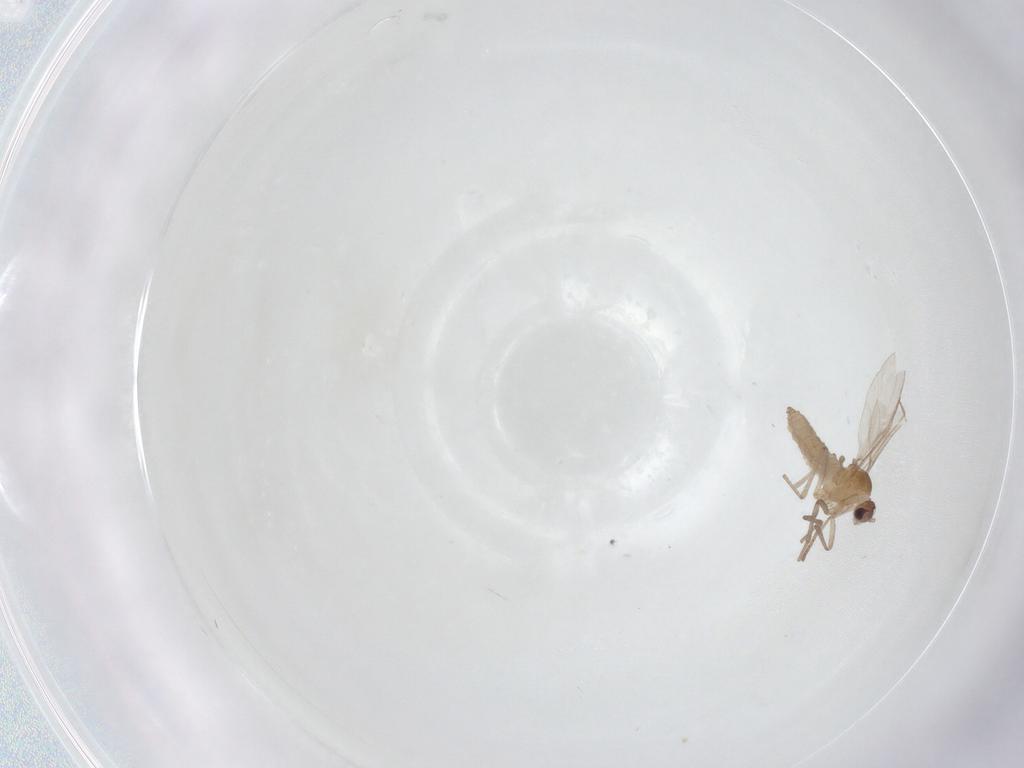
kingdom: Animalia
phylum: Arthropoda
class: Insecta
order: Diptera
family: Cecidomyiidae
